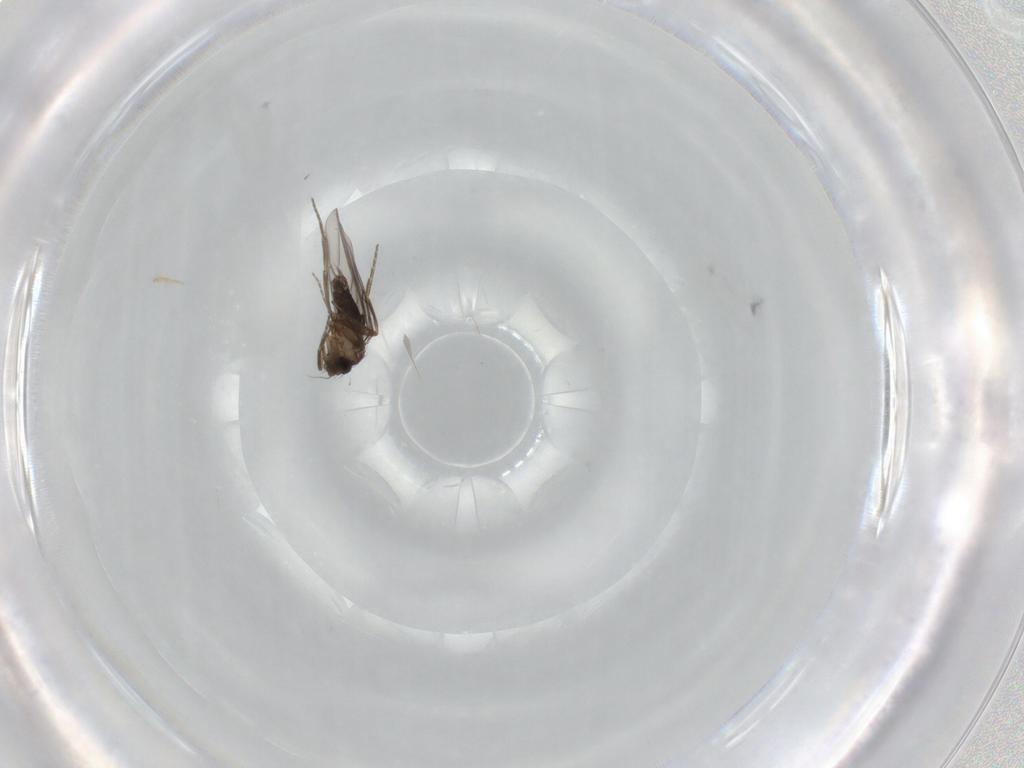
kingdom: Animalia
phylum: Arthropoda
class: Insecta
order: Diptera
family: Phoridae
